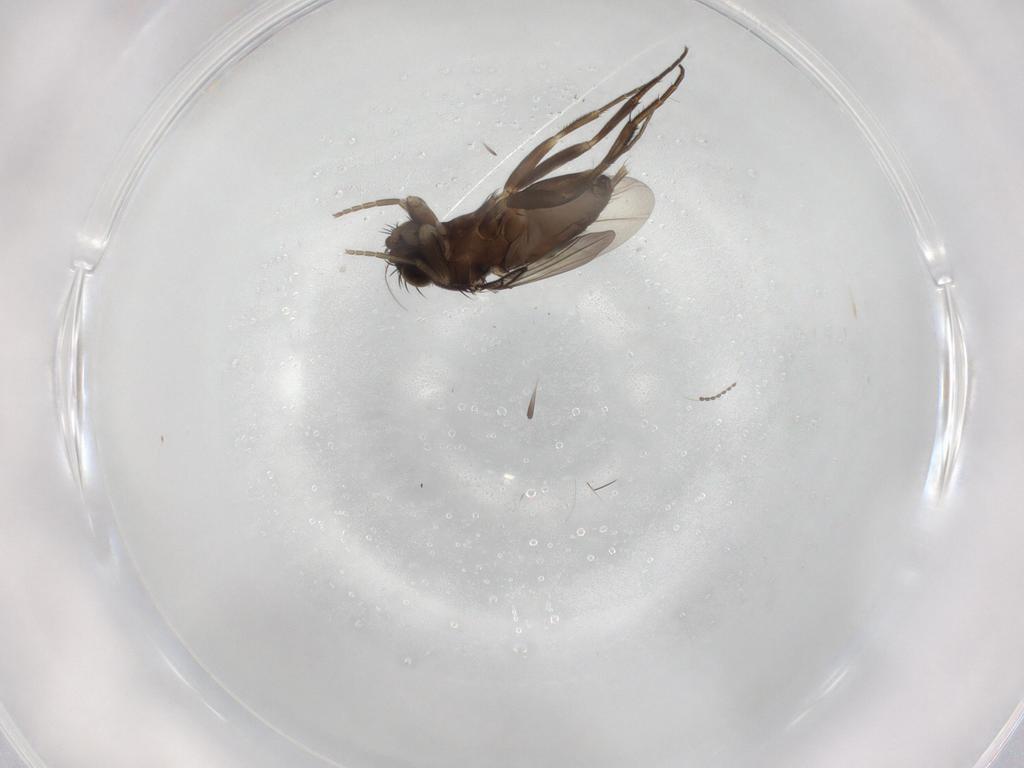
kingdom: Animalia
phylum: Arthropoda
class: Insecta
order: Diptera
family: Phoridae
